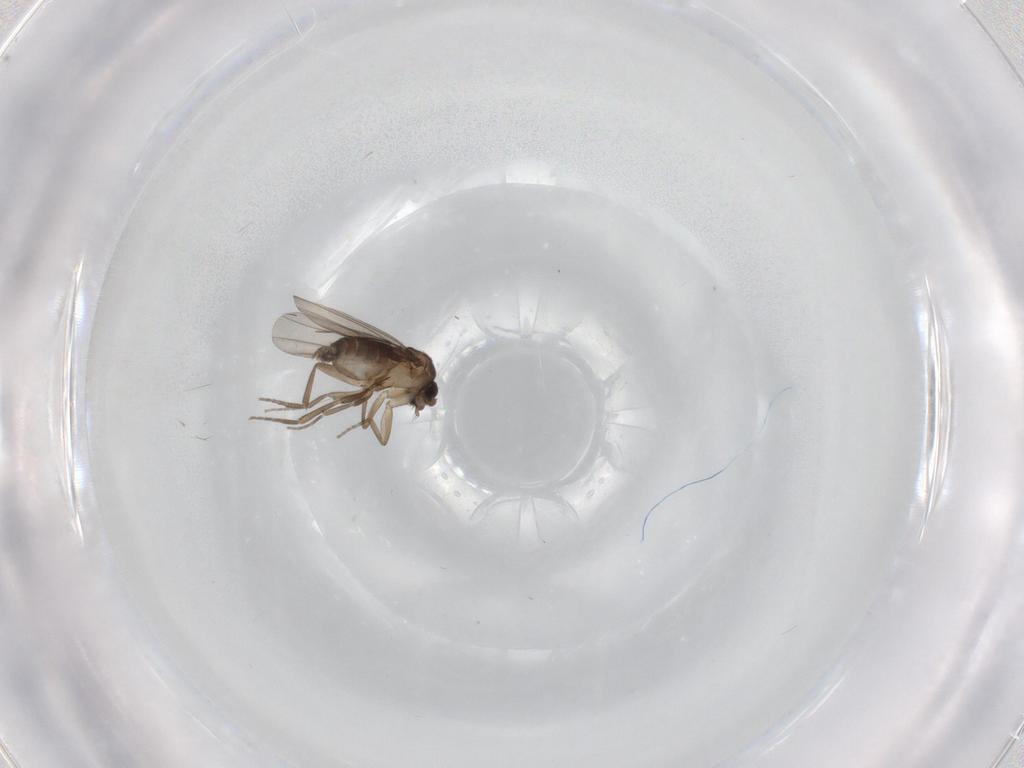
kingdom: Animalia
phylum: Arthropoda
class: Insecta
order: Diptera
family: Phoridae
